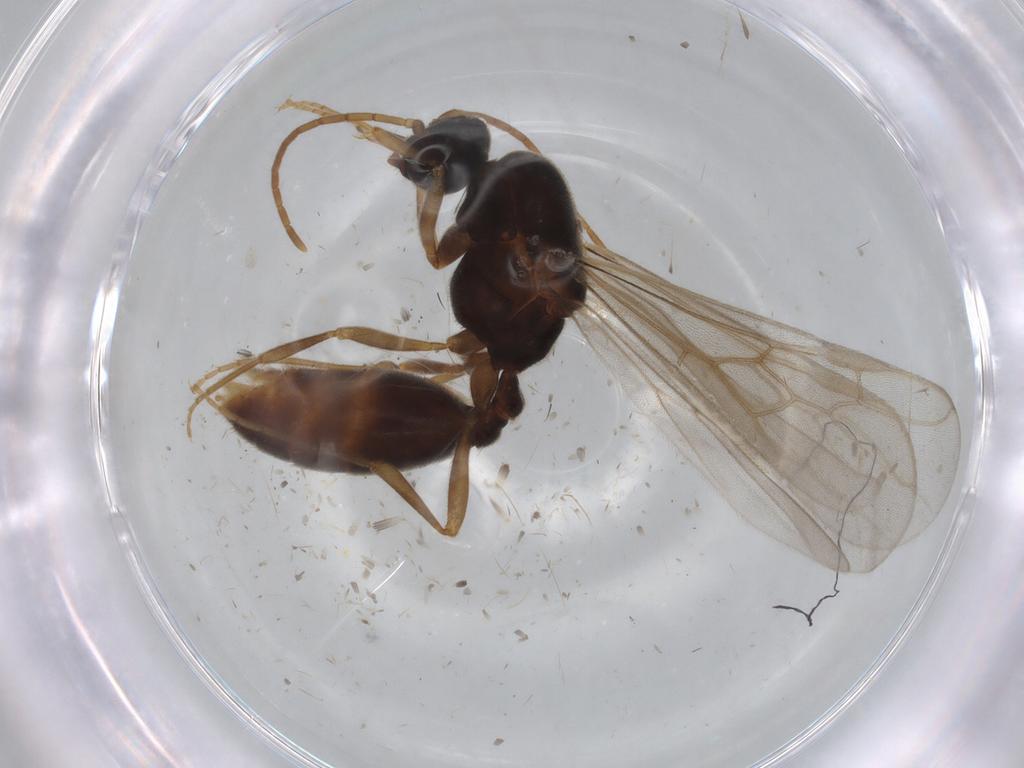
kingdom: Animalia
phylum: Arthropoda
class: Insecta
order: Hymenoptera
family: Formicidae
